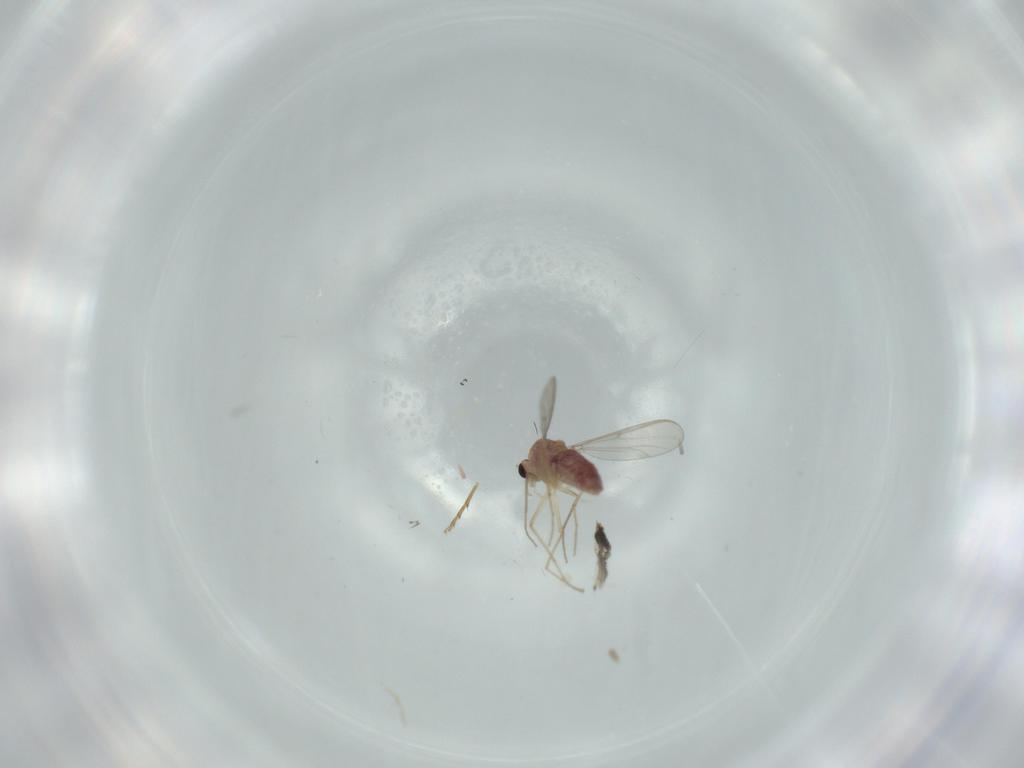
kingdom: Animalia
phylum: Arthropoda
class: Insecta
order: Diptera
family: Chironomidae
